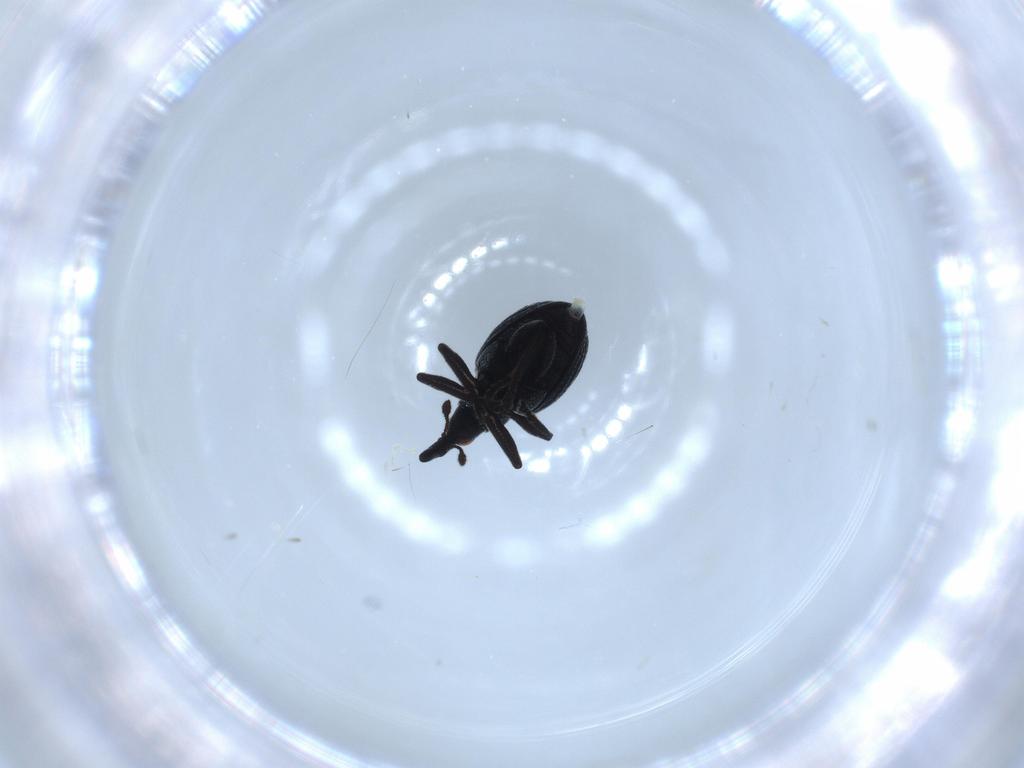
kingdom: Animalia
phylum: Arthropoda
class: Insecta
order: Coleoptera
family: Brentidae
